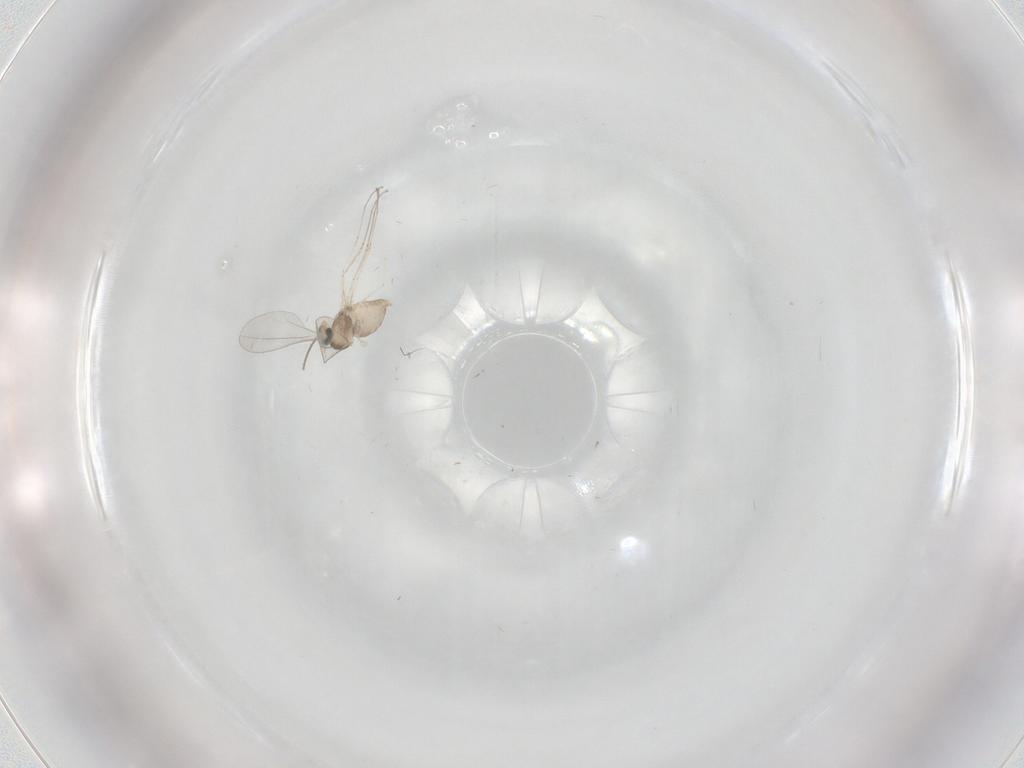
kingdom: Animalia
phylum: Arthropoda
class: Insecta
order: Diptera
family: Cecidomyiidae
